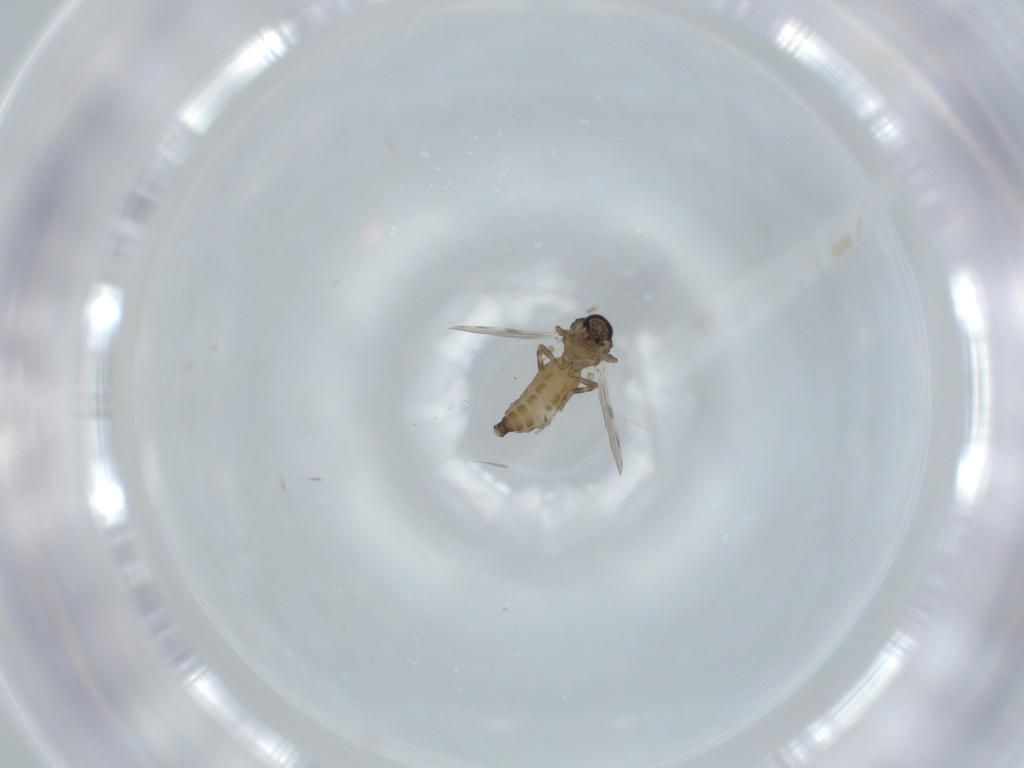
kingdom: Animalia
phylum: Arthropoda
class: Insecta
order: Diptera
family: Ceratopogonidae
